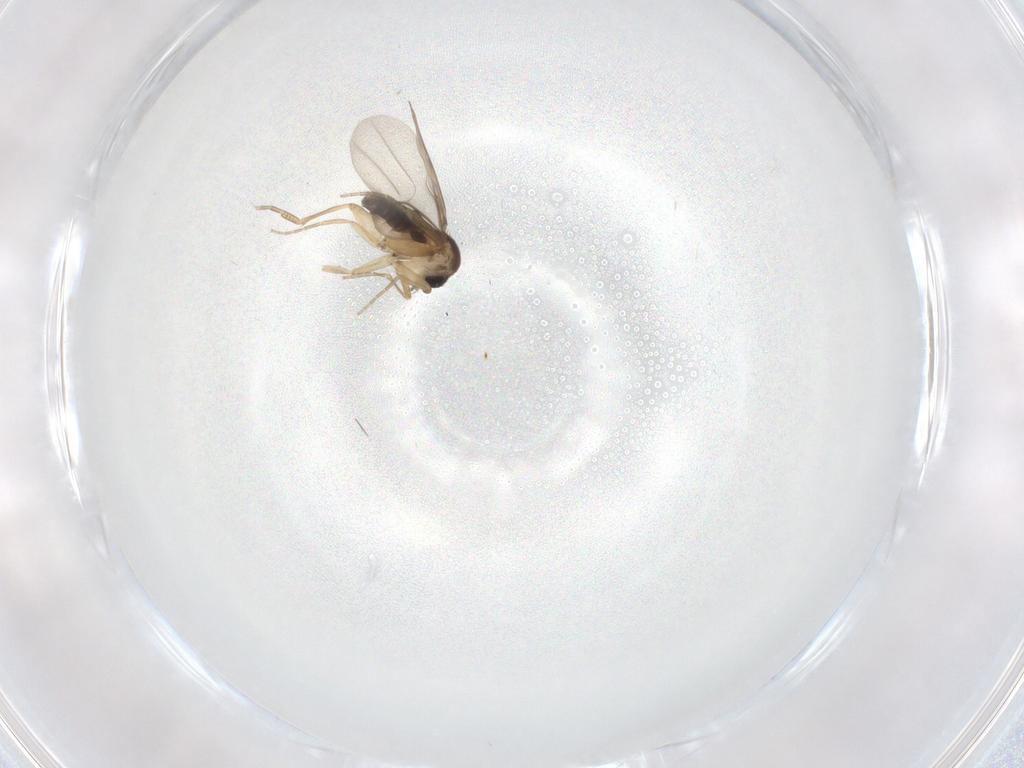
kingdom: Animalia
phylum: Arthropoda
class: Insecta
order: Diptera
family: Phoridae
